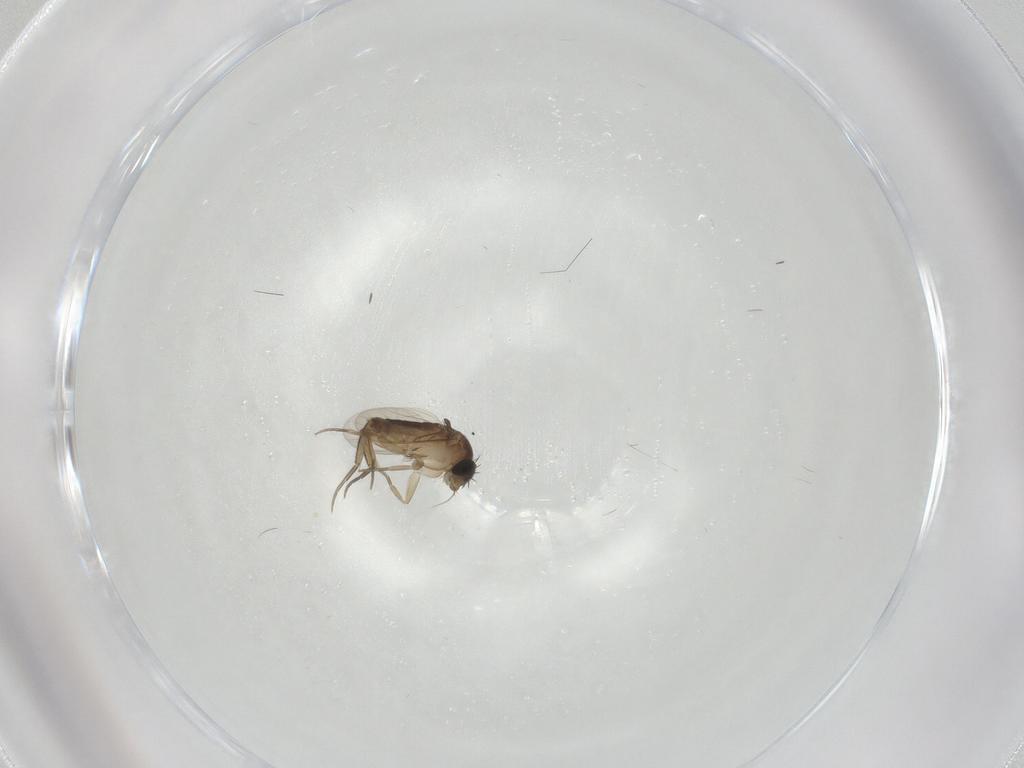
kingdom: Animalia
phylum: Arthropoda
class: Insecta
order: Diptera
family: Phoridae
